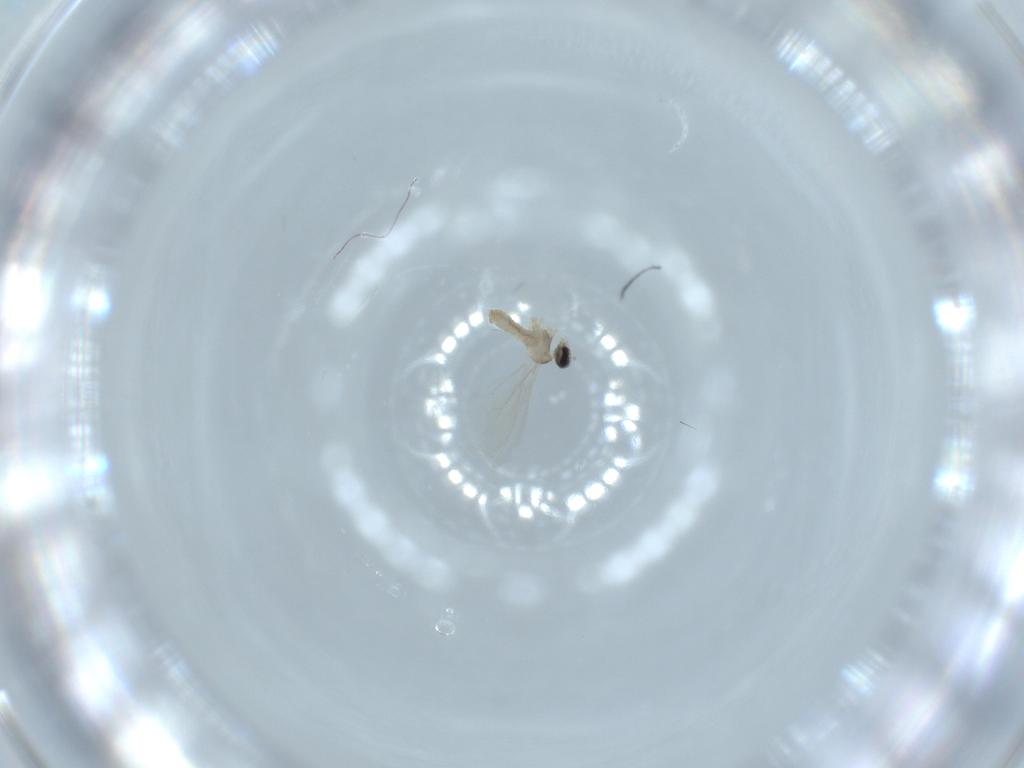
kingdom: Animalia
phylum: Arthropoda
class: Insecta
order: Diptera
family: Cecidomyiidae
